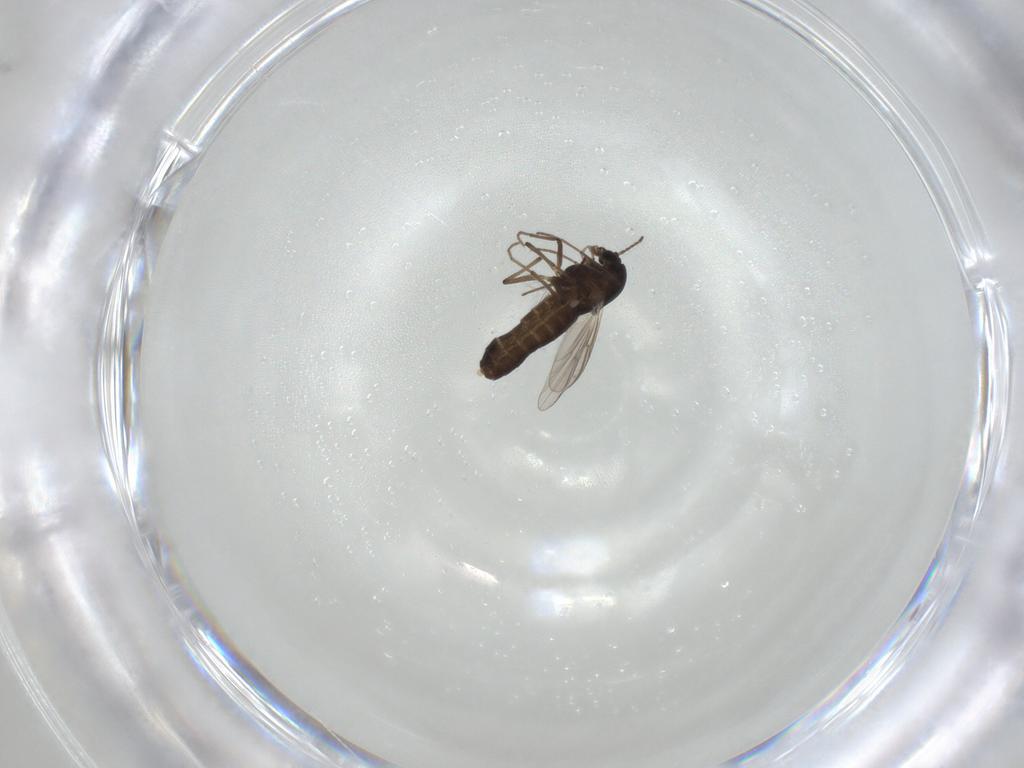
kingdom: Animalia
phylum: Arthropoda
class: Insecta
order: Diptera
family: Chironomidae
